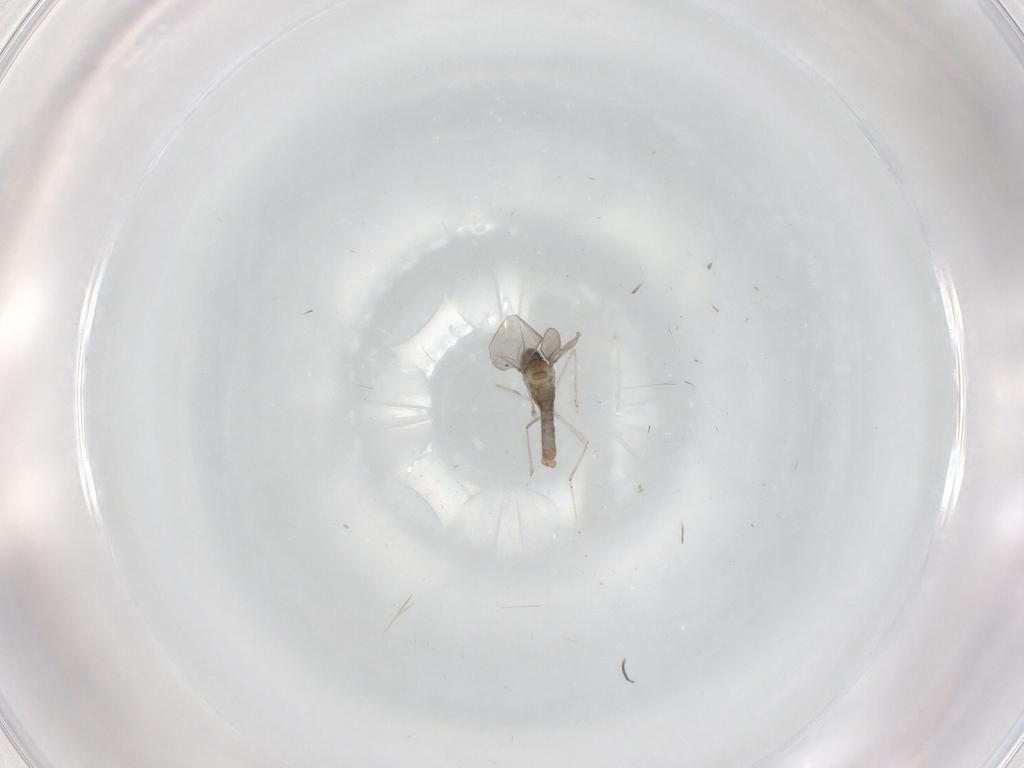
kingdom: Animalia
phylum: Arthropoda
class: Insecta
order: Diptera
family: Cecidomyiidae
